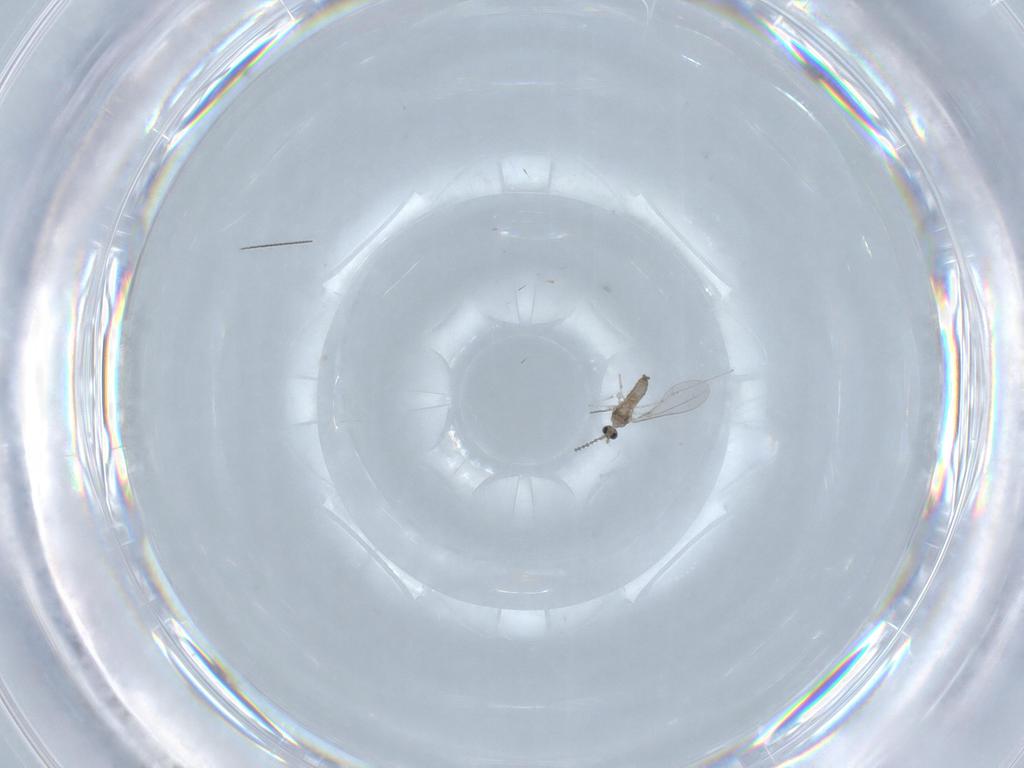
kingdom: Animalia
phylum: Arthropoda
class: Insecta
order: Diptera
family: Cecidomyiidae
